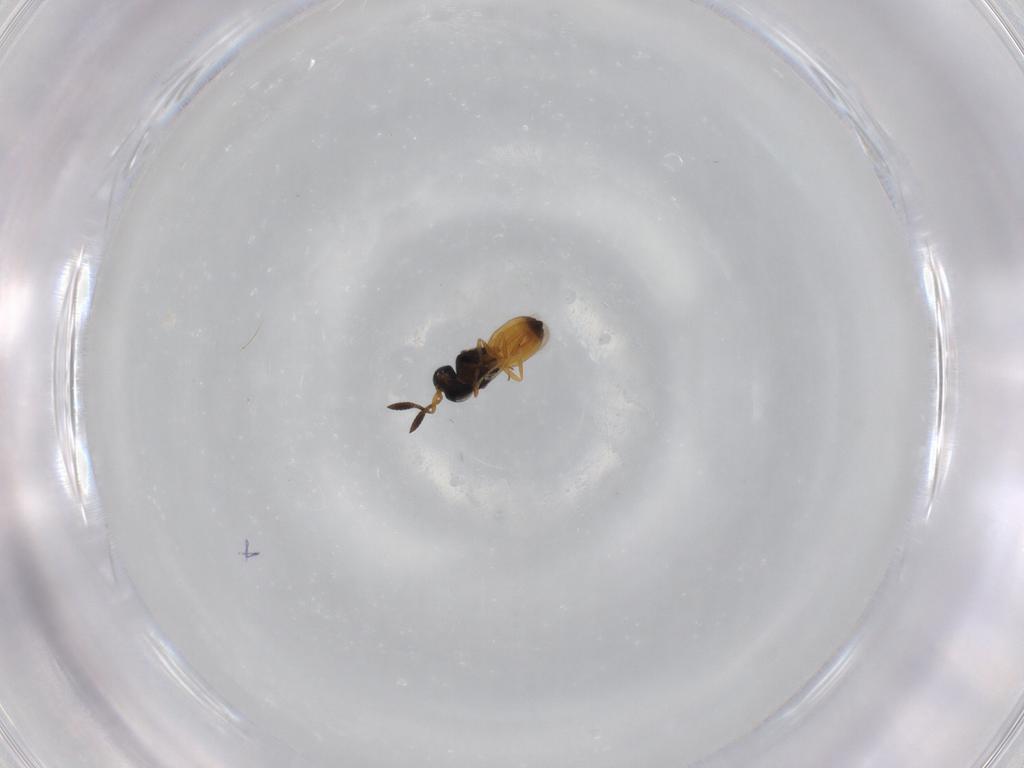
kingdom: Animalia
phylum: Arthropoda
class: Insecta
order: Hymenoptera
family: Scelionidae
